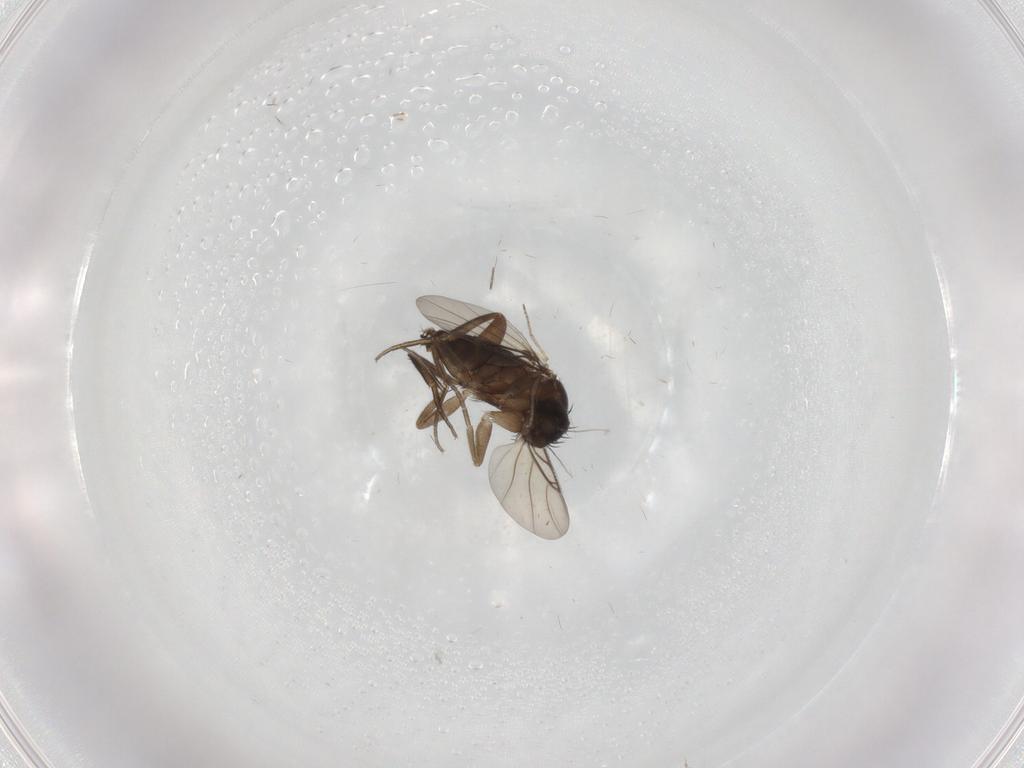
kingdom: Animalia
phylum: Arthropoda
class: Insecta
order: Diptera
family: Phoridae
